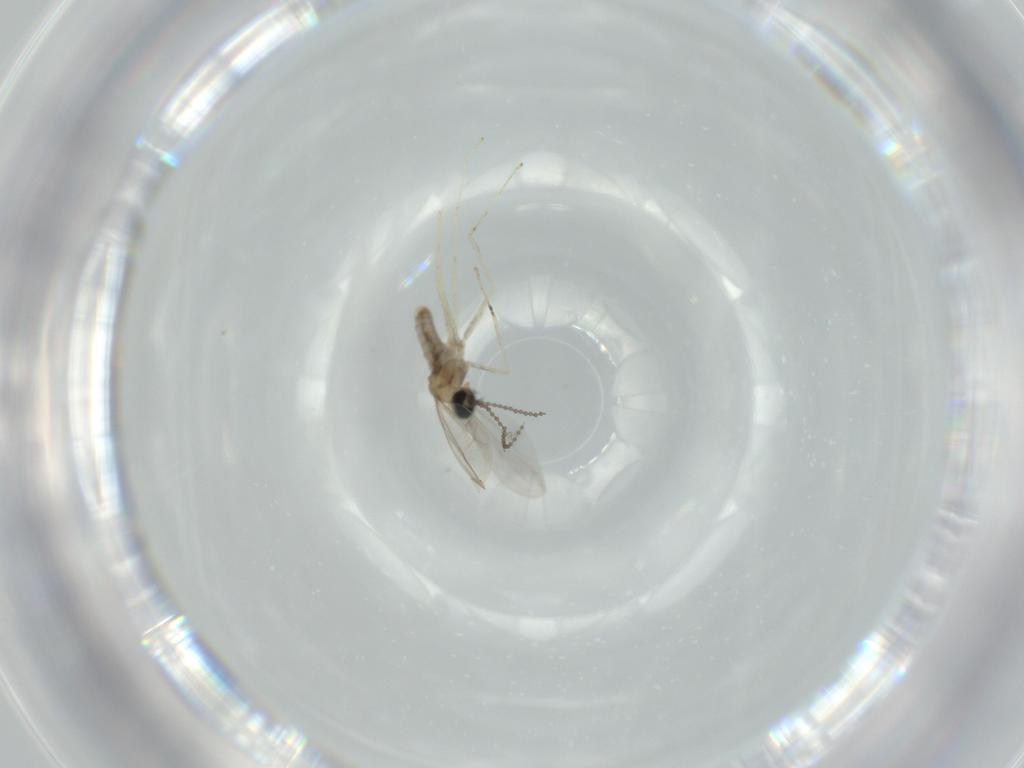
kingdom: Animalia
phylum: Arthropoda
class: Insecta
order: Diptera
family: Cecidomyiidae
